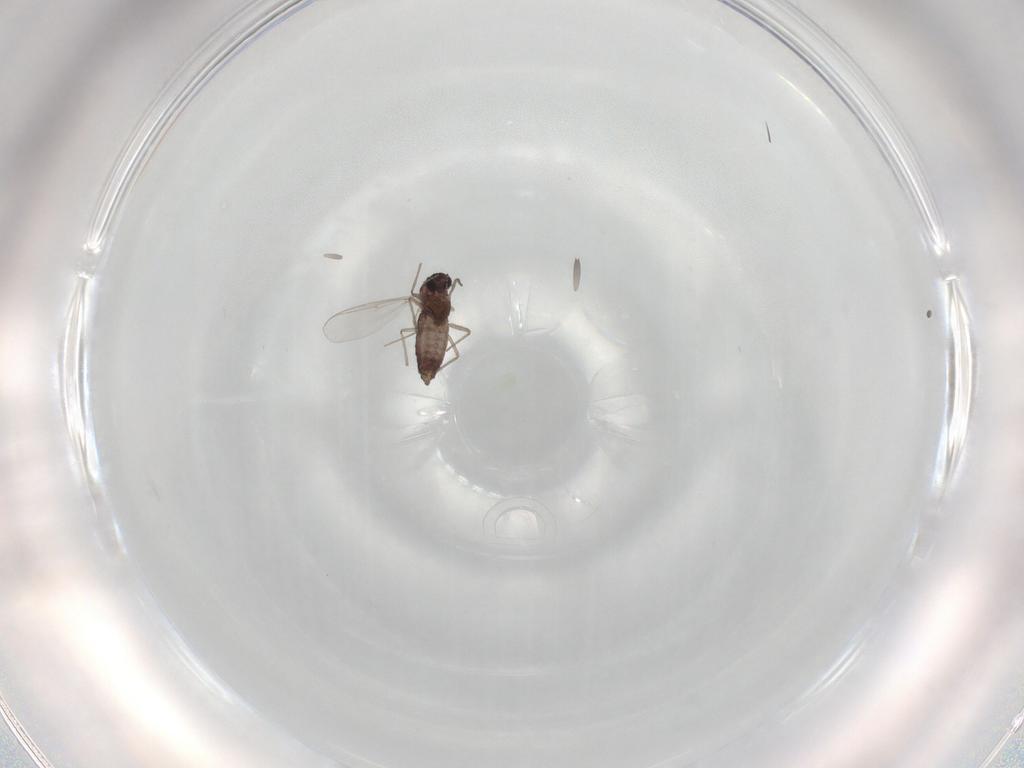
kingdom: Animalia
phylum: Arthropoda
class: Insecta
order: Diptera
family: Chironomidae
